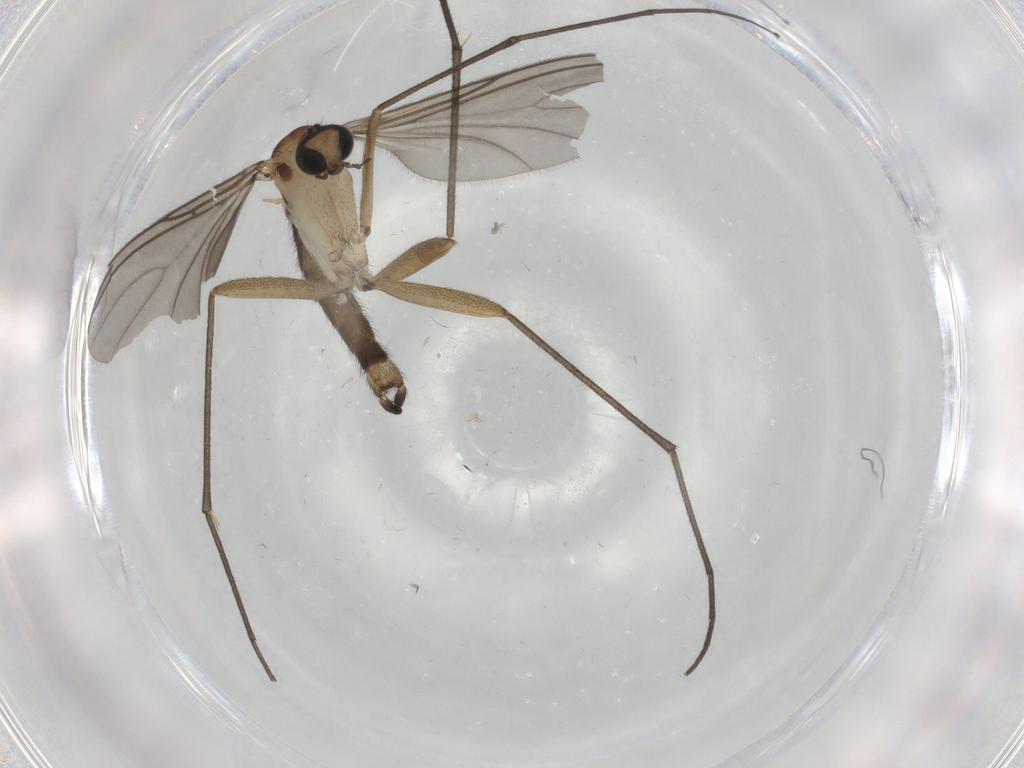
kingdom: Animalia
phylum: Arthropoda
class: Insecta
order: Diptera
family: Sciaridae
